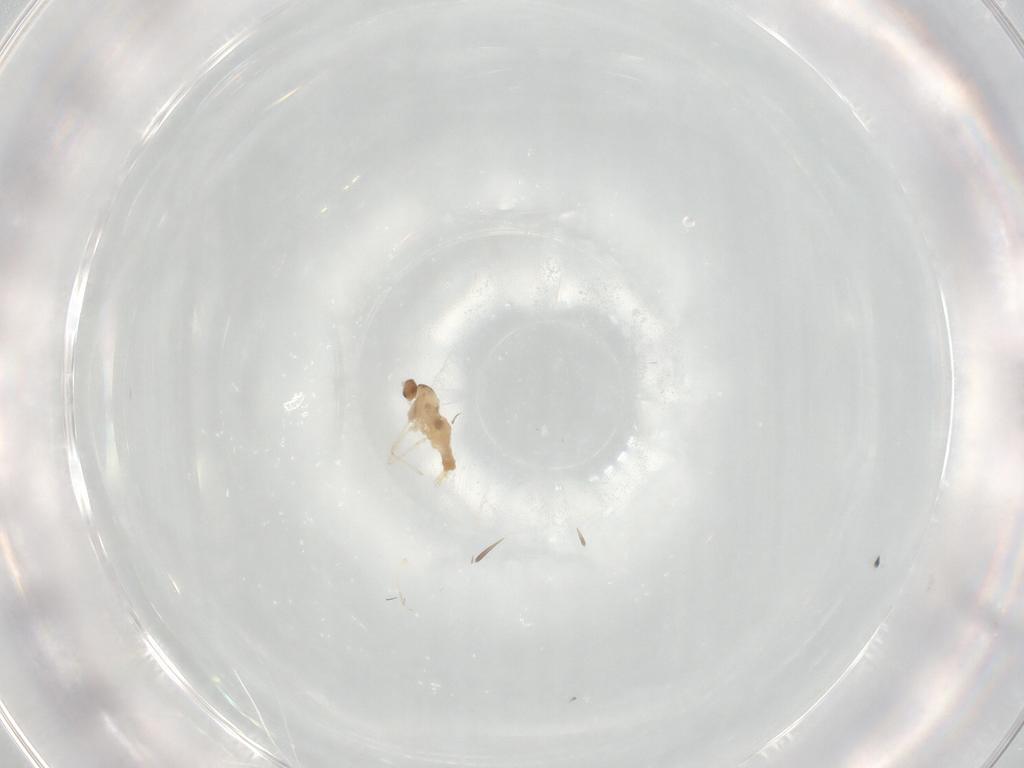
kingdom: Animalia
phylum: Arthropoda
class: Insecta
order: Diptera
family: Cecidomyiidae
